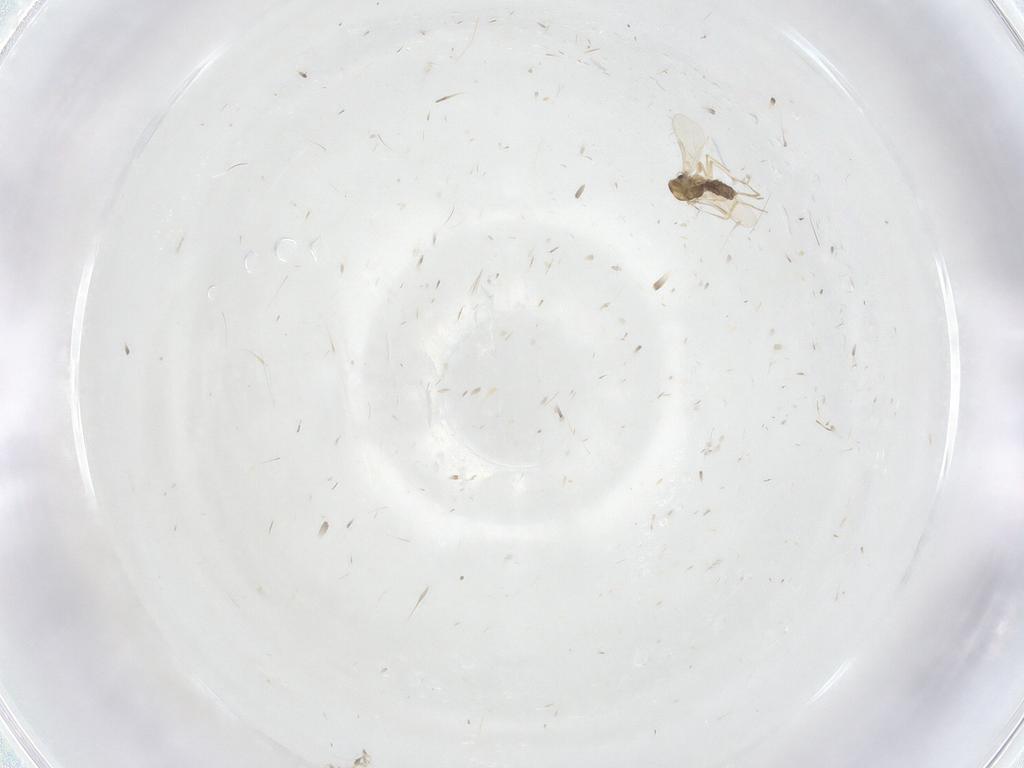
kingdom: Animalia
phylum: Arthropoda
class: Insecta
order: Diptera
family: Chironomidae
